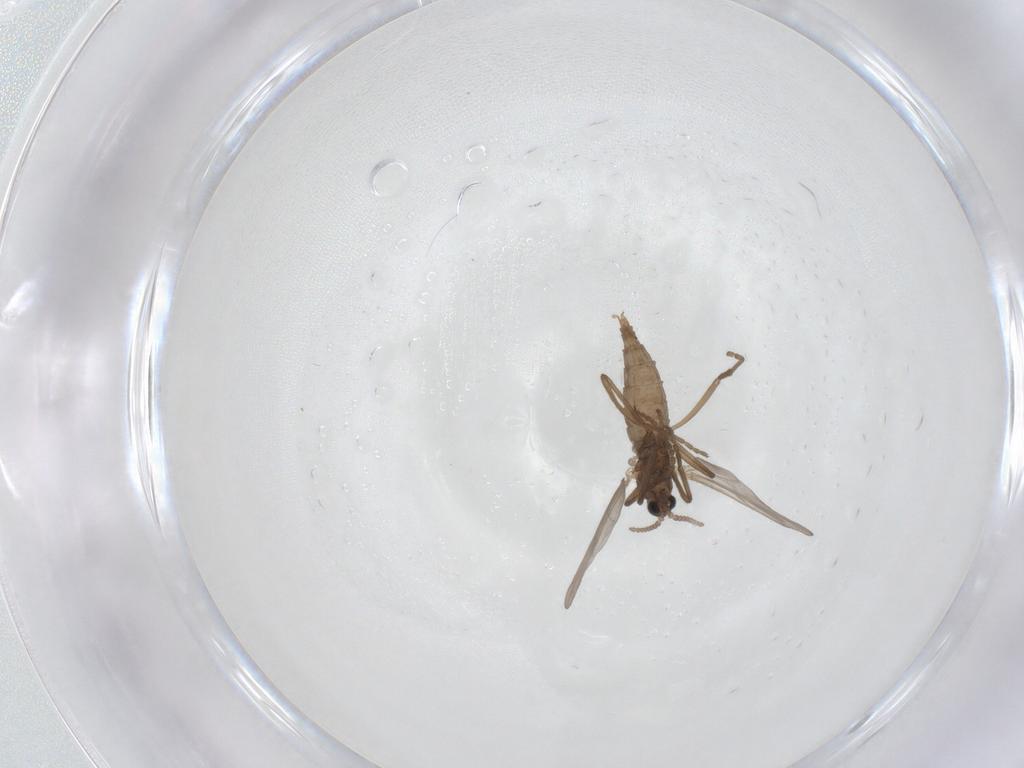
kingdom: Animalia
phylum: Arthropoda
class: Insecta
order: Diptera
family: Cecidomyiidae
